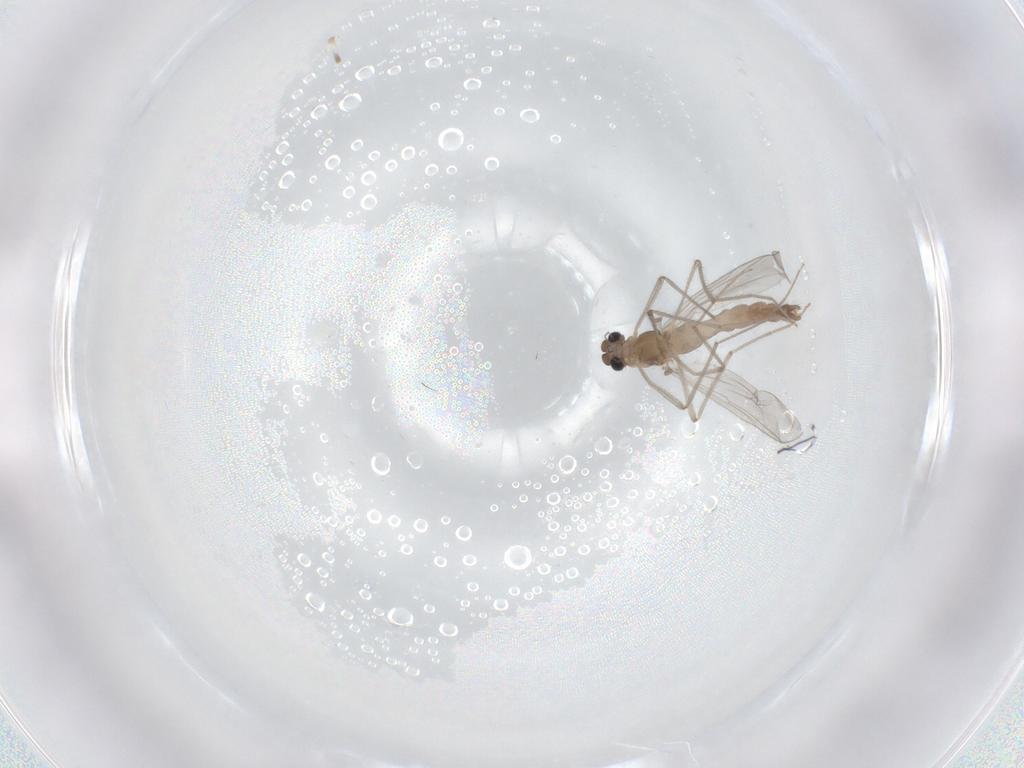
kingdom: Animalia
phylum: Arthropoda
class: Insecta
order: Diptera
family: Chironomidae
